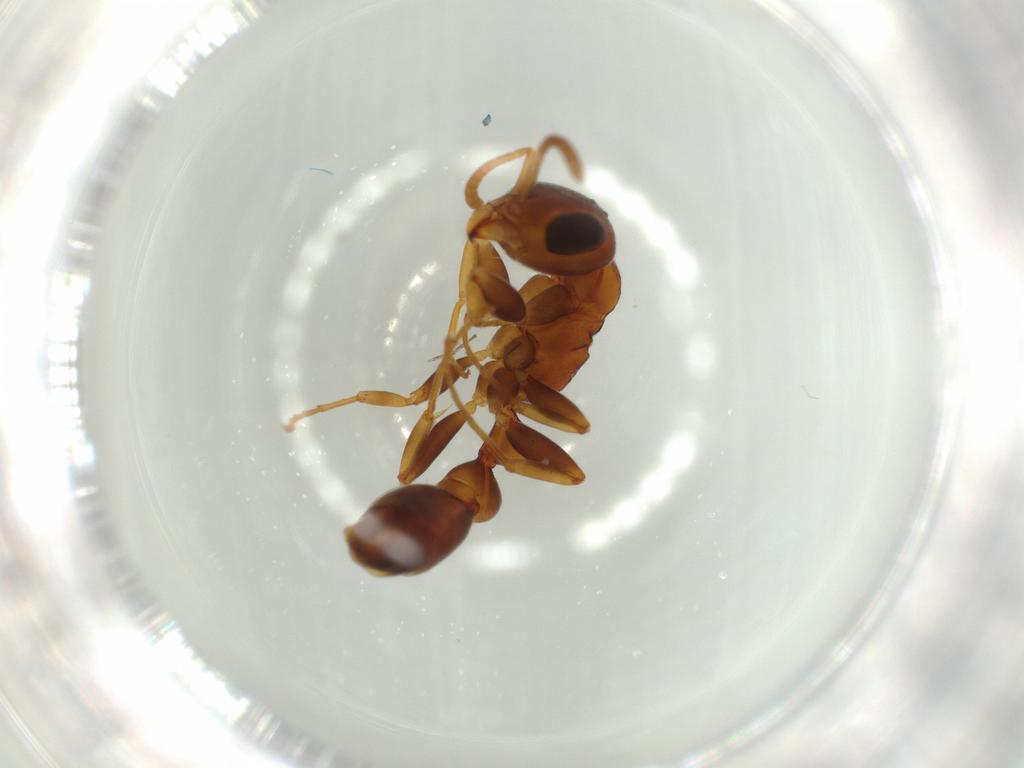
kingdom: Animalia
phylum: Arthropoda
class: Insecta
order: Hymenoptera
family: Formicidae
